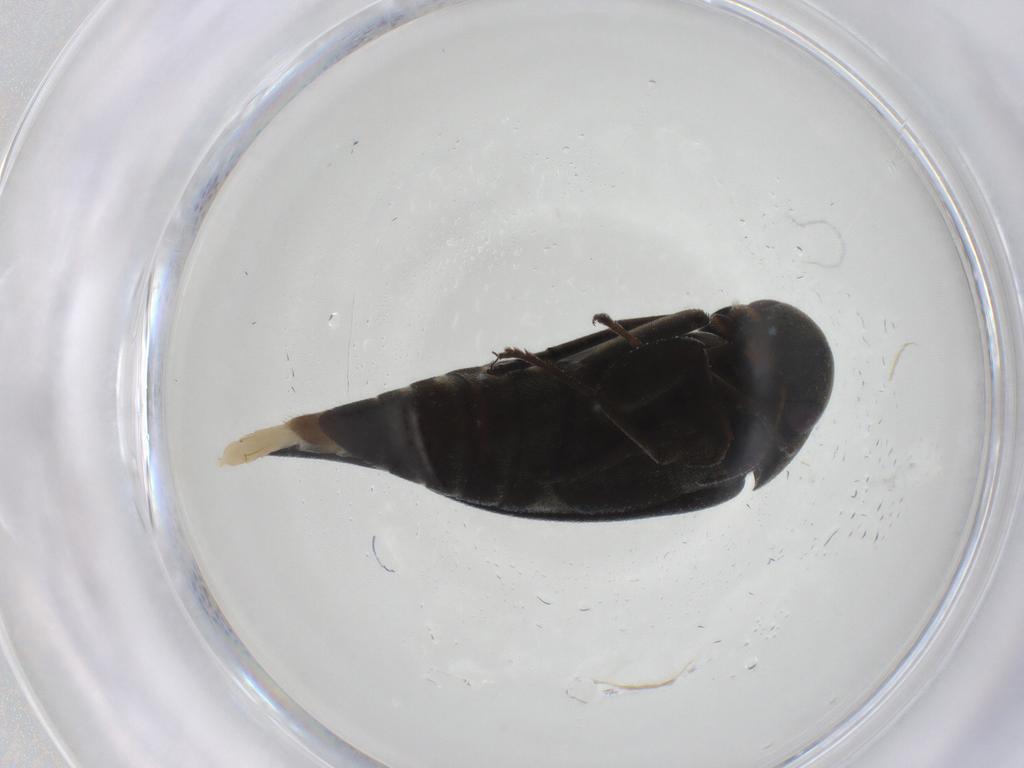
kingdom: Animalia
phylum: Arthropoda
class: Insecta
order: Coleoptera
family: Mordellidae
